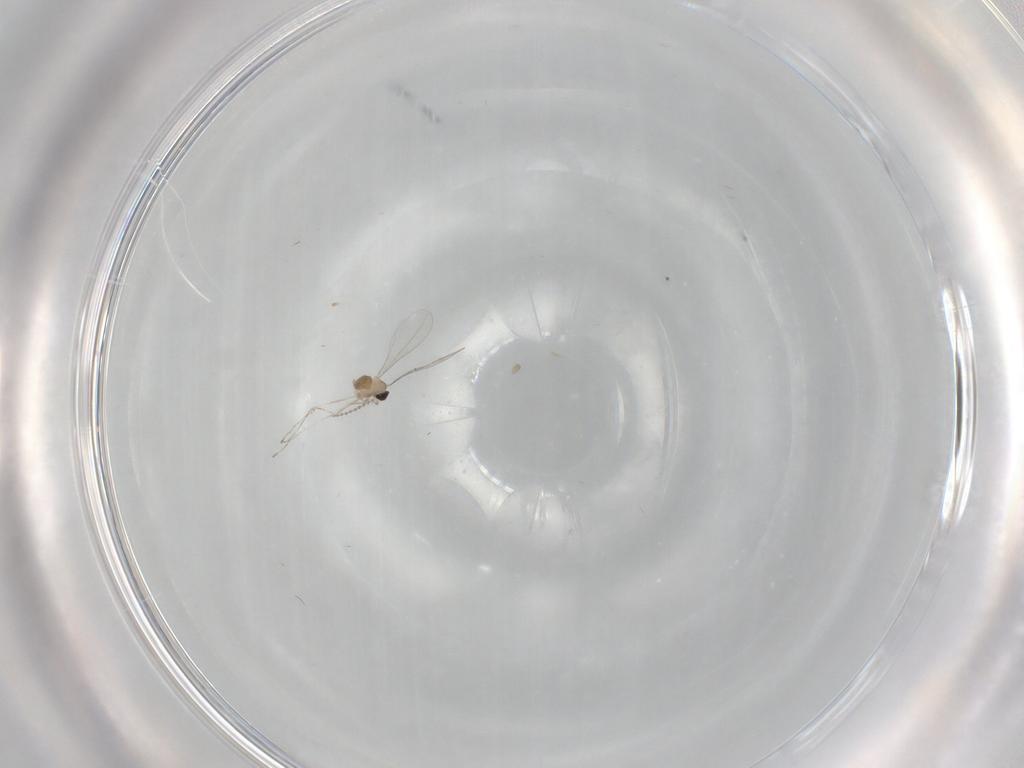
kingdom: Animalia
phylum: Arthropoda
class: Insecta
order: Diptera
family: Cecidomyiidae
